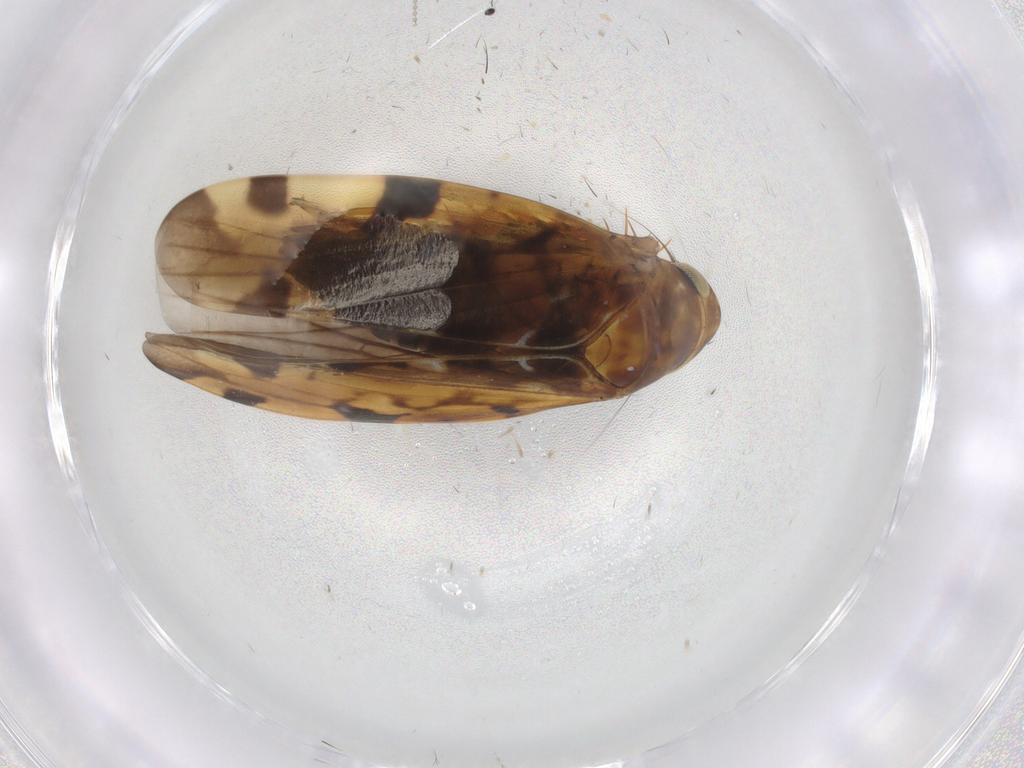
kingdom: Animalia
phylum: Arthropoda
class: Insecta
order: Hemiptera
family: Cicadellidae
